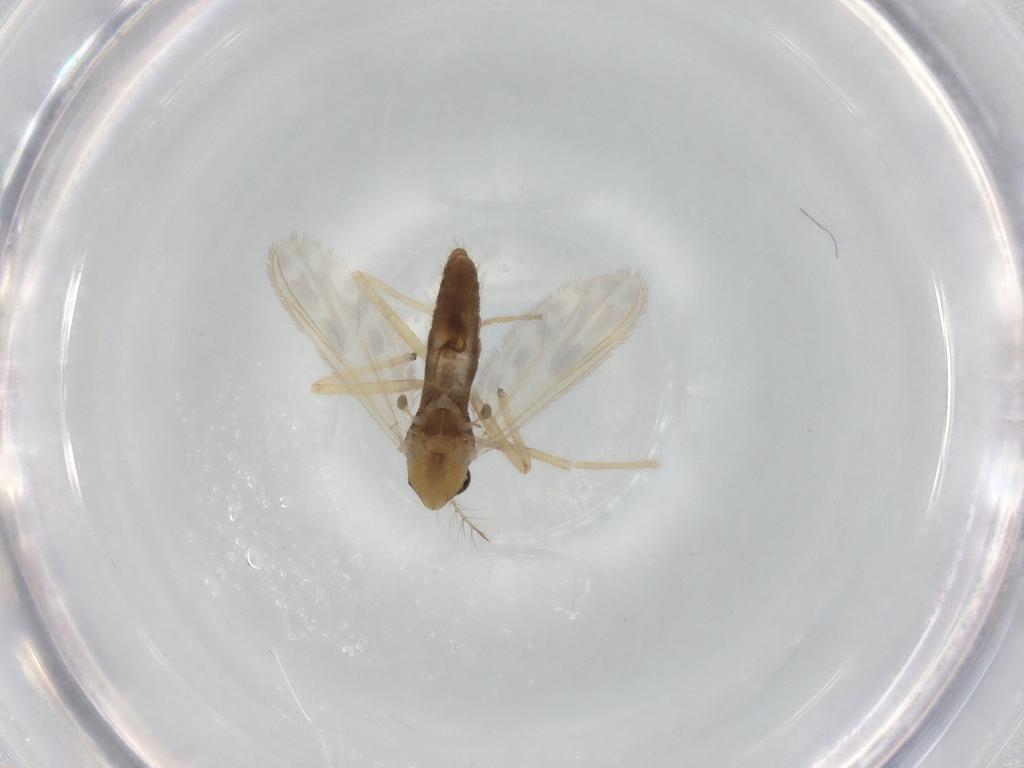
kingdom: Animalia
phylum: Arthropoda
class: Insecta
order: Diptera
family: Chironomidae
